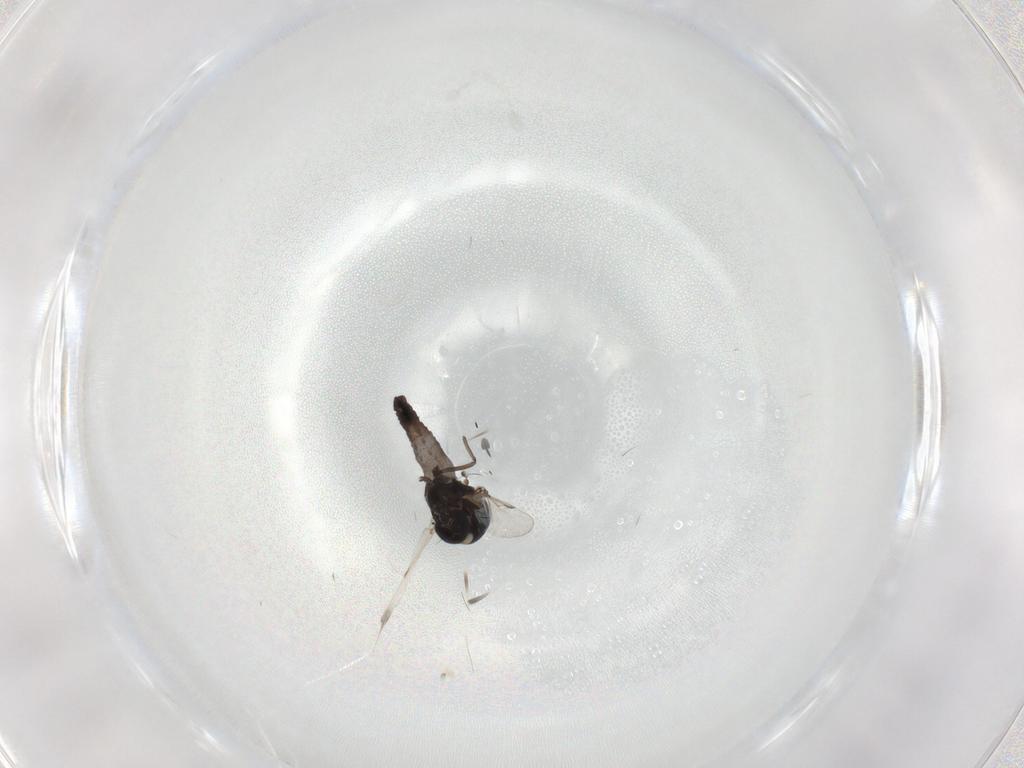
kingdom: Animalia
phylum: Arthropoda
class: Insecta
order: Diptera
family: Ceratopogonidae
